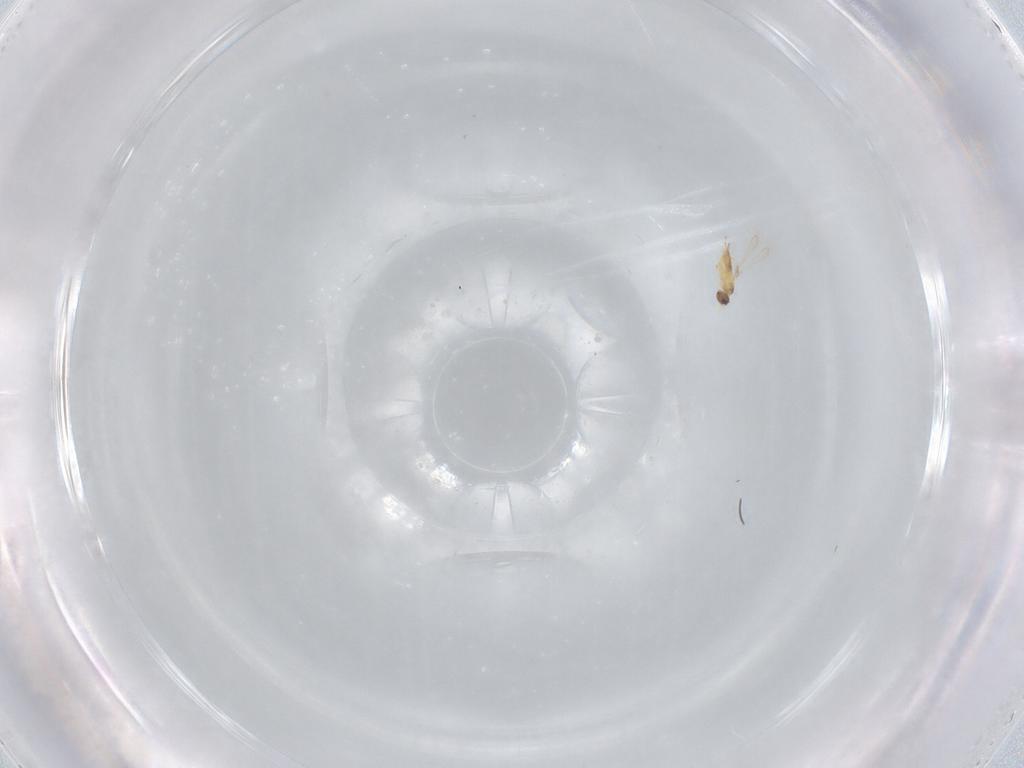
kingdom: Animalia
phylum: Arthropoda
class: Insecta
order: Hymenoptera
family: Mymaridae
